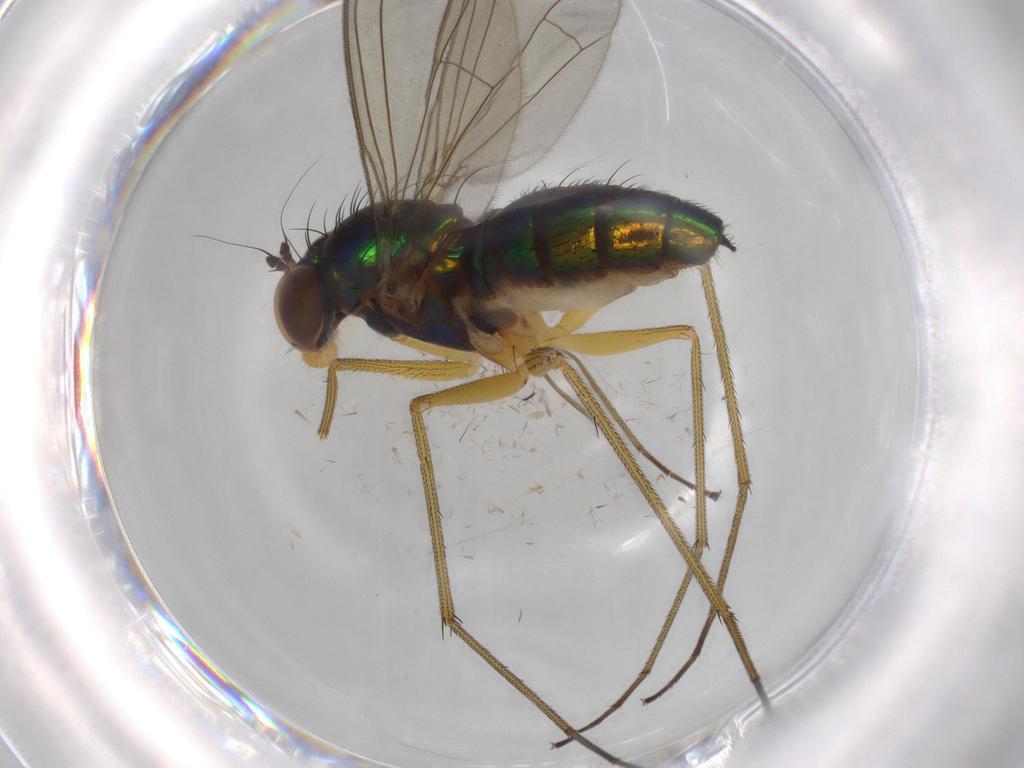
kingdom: Animalia
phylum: Arthropoda
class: Insecta
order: Diptera
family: Dolichopodidae
